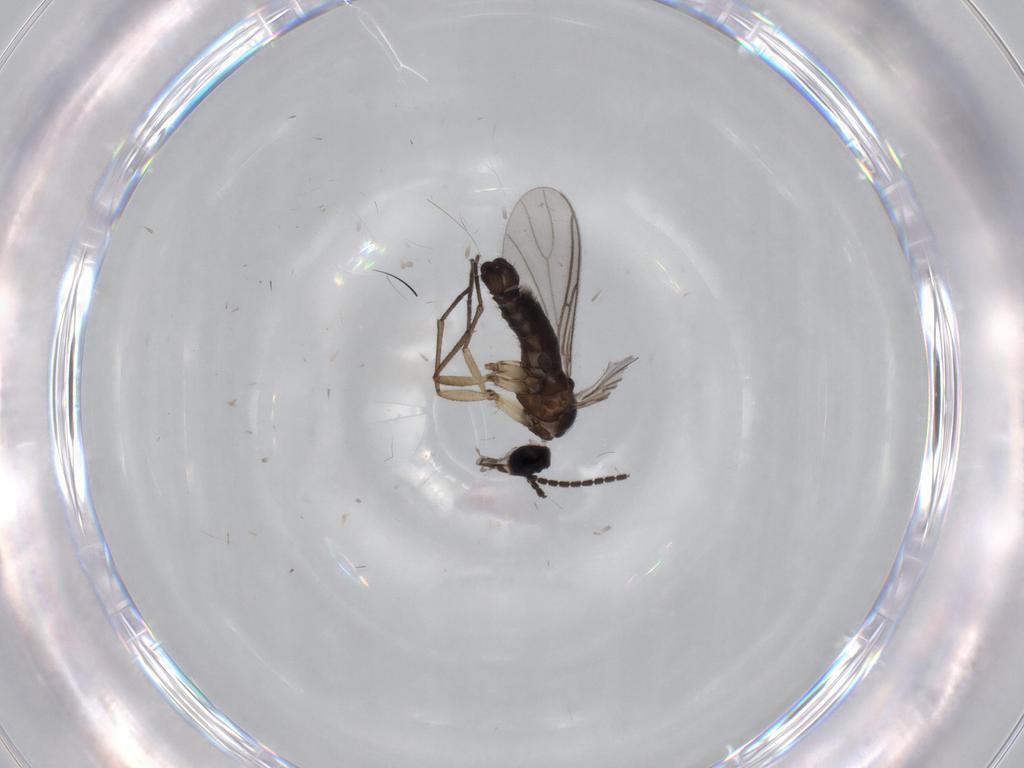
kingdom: Animalia
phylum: Arthropoda
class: Insecta
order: Diptera
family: Sciaridae
